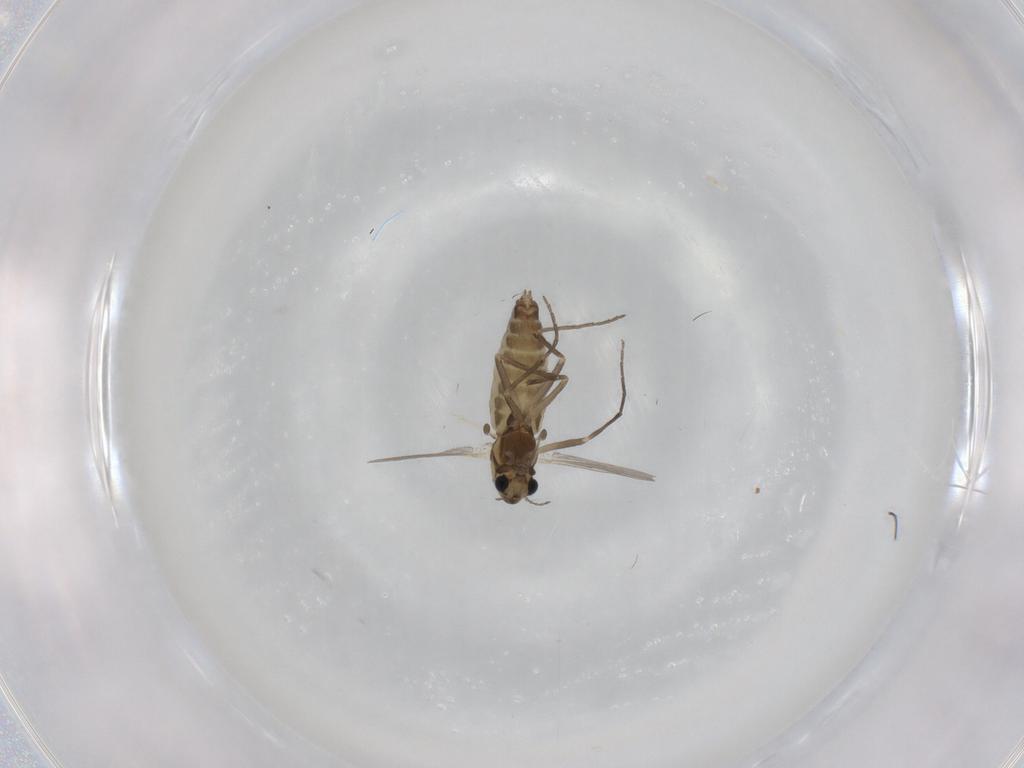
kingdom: Animalia
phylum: Arthropoda
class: Insecta
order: Diptera
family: Chironomidae
